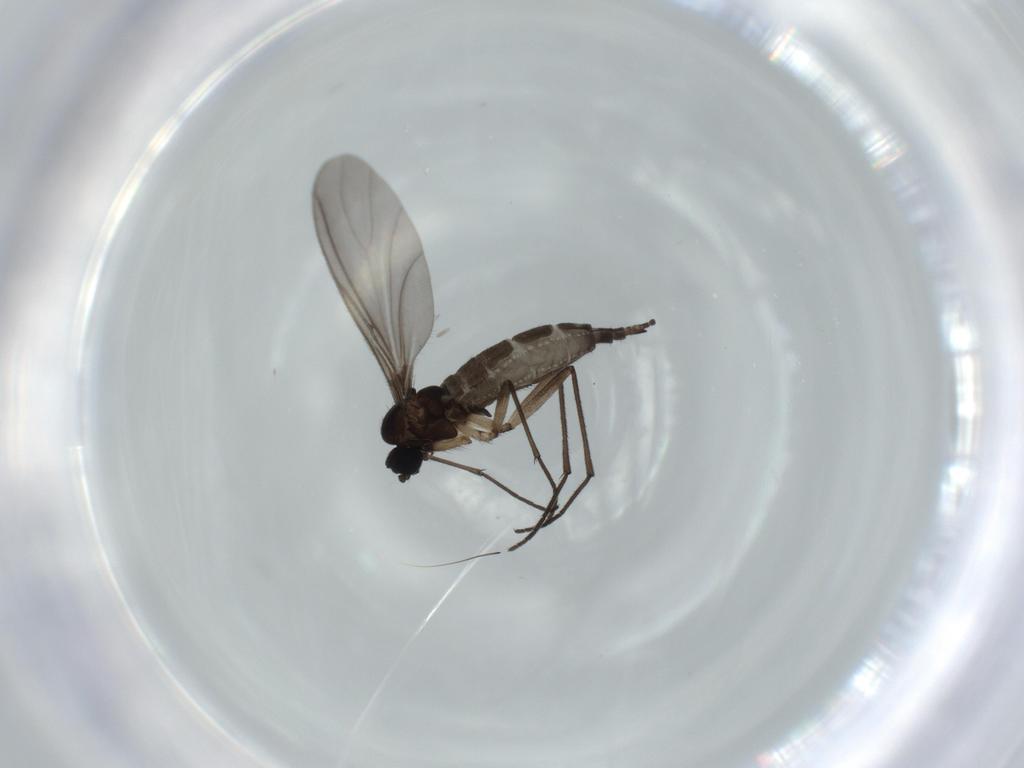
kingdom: Animalia
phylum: Arthropoda
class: Insecta
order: Diptera
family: Sciaridae
